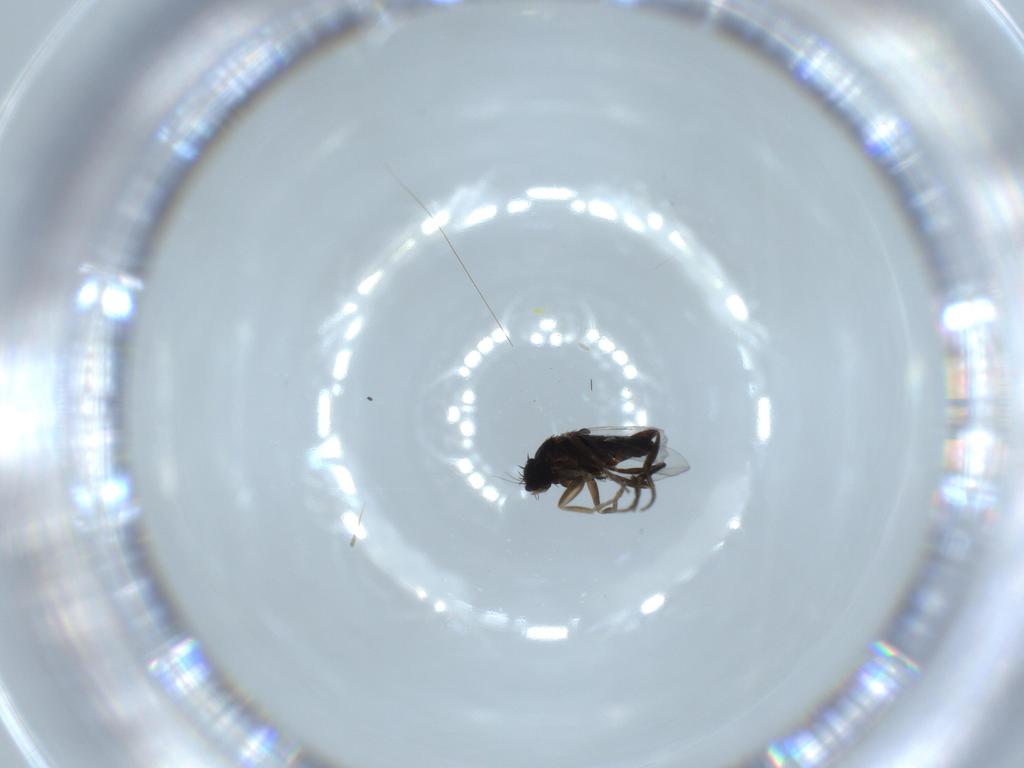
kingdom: Animalia
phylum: Arthropoda
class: Insecta
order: Diptera
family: Phoridae
